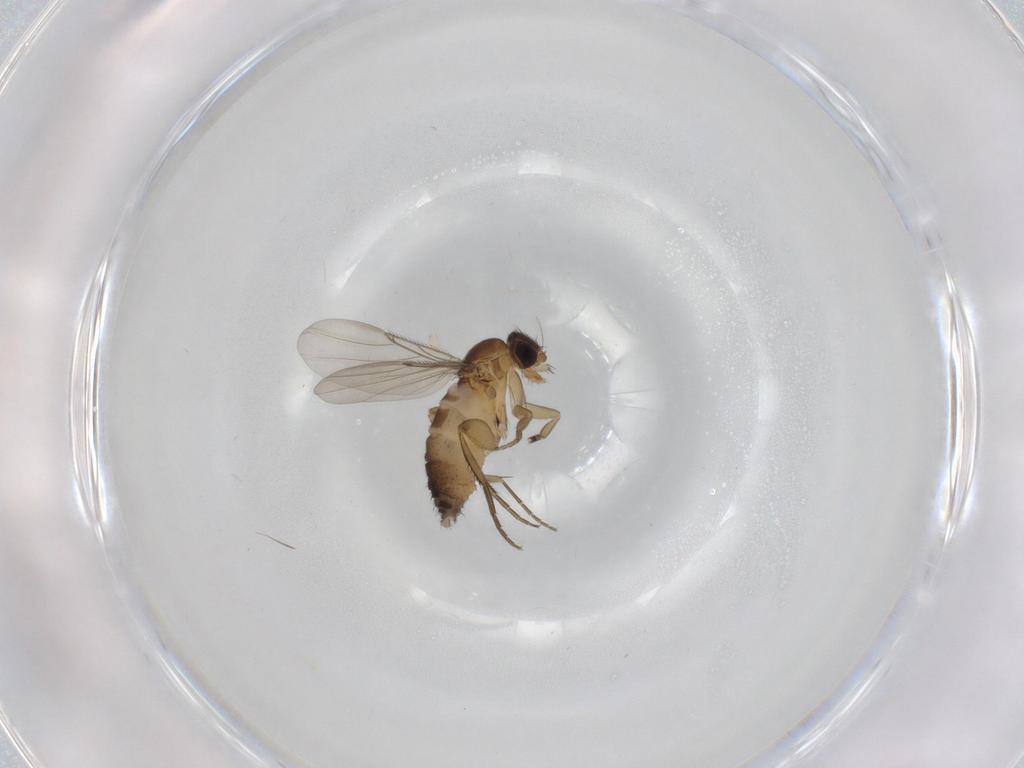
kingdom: Animalia
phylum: Arthropoda
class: Insecta
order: Diptera
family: Phoridae
